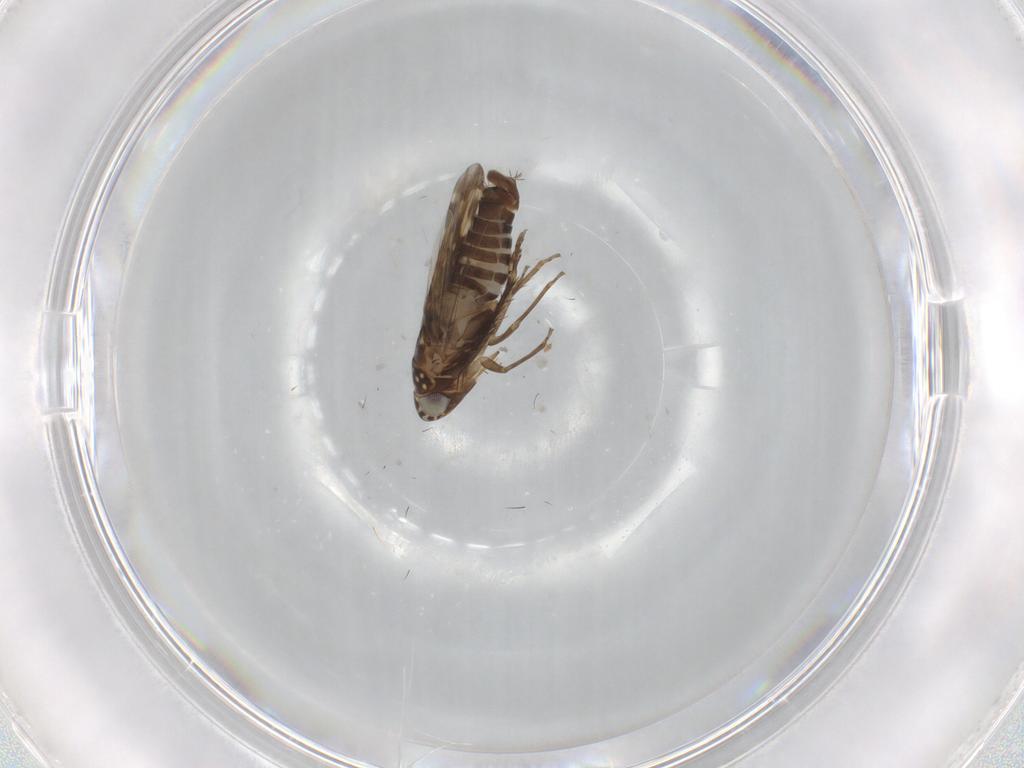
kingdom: Animalia
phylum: Arthropoda
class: Insecta
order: Hemiptera
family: Cicadellidae
